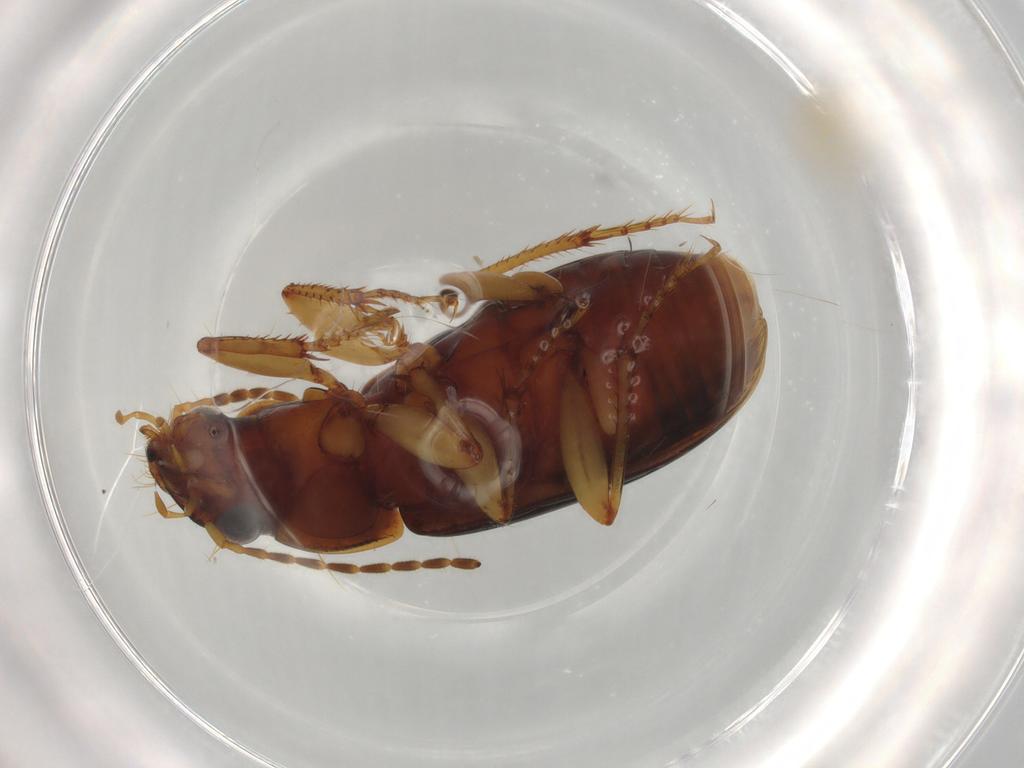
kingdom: Animalia
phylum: Arthropoda
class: Insecta
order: Coleoptera
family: Carabidae
